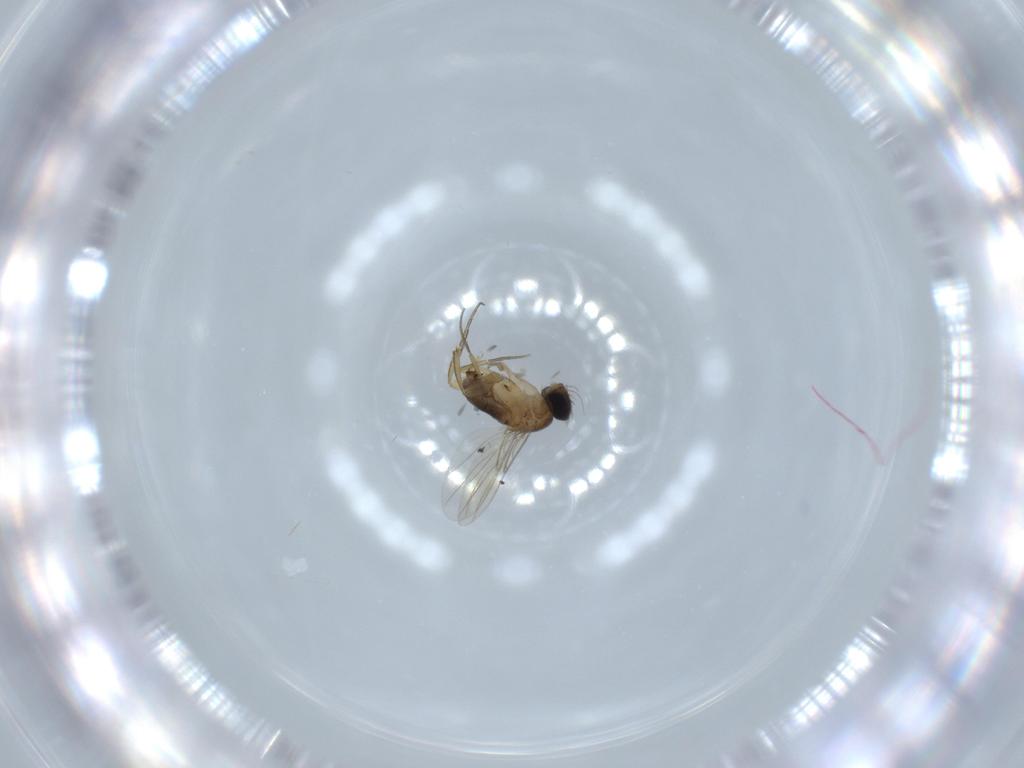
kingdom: Animalia
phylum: Arthropoda
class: Insecta
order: Diptera
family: Phoridae
